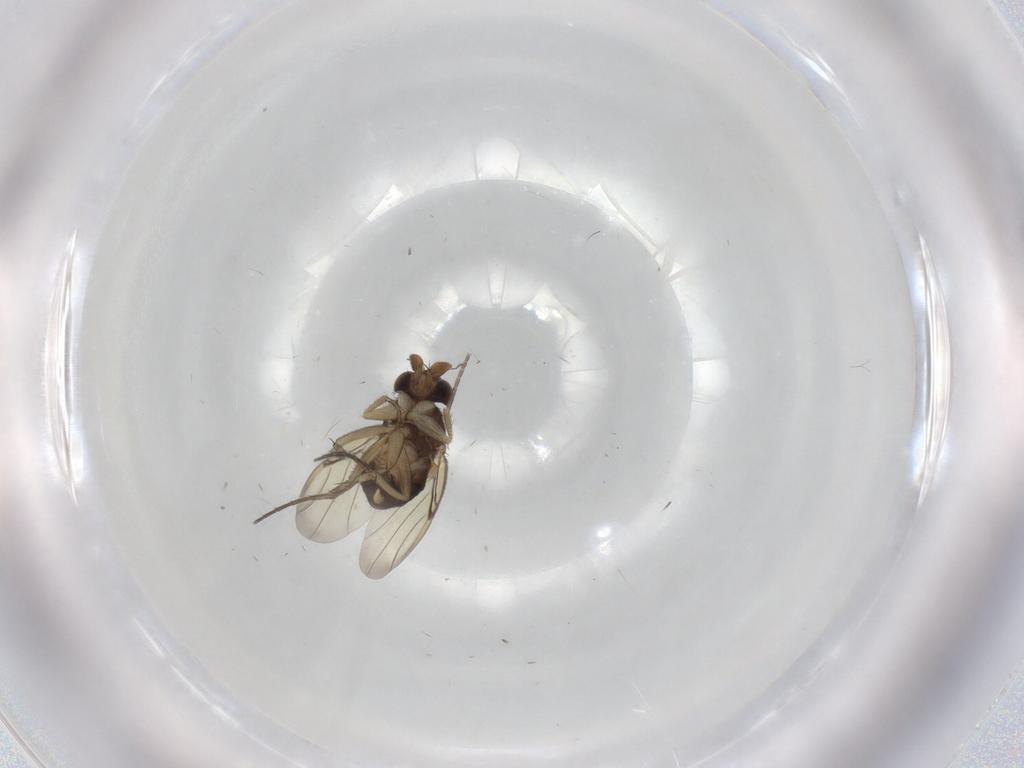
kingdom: Animalia
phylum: Arthropoda
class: Insecta
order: Diptera
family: Phoridae
